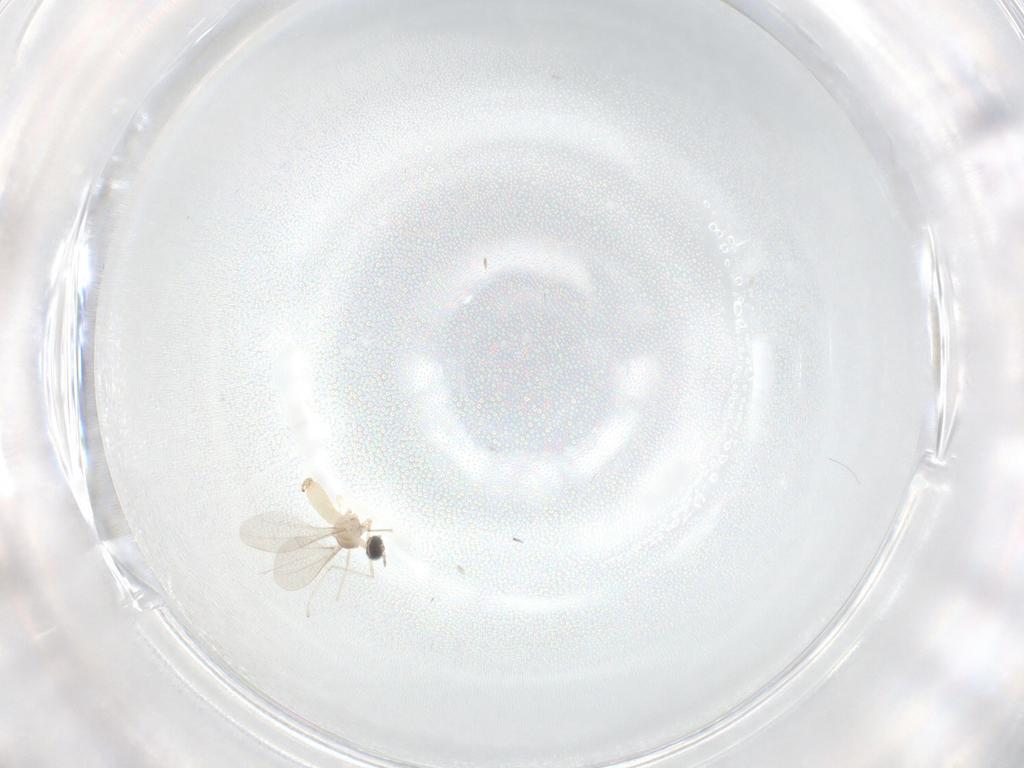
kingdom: Animalia
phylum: Arthropoda
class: Insecta
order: Diptera
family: Cecidomyiidae
